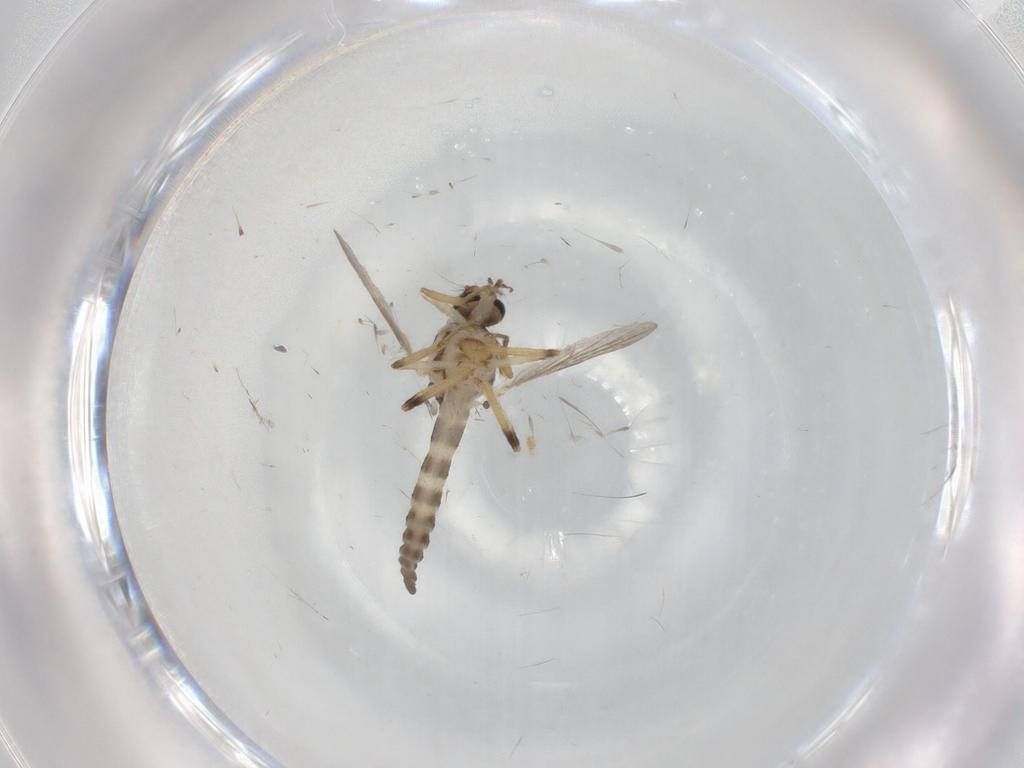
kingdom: Animalia
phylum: Arthropoda
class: Insecta
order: Diptera
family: Ceratopogonidae
